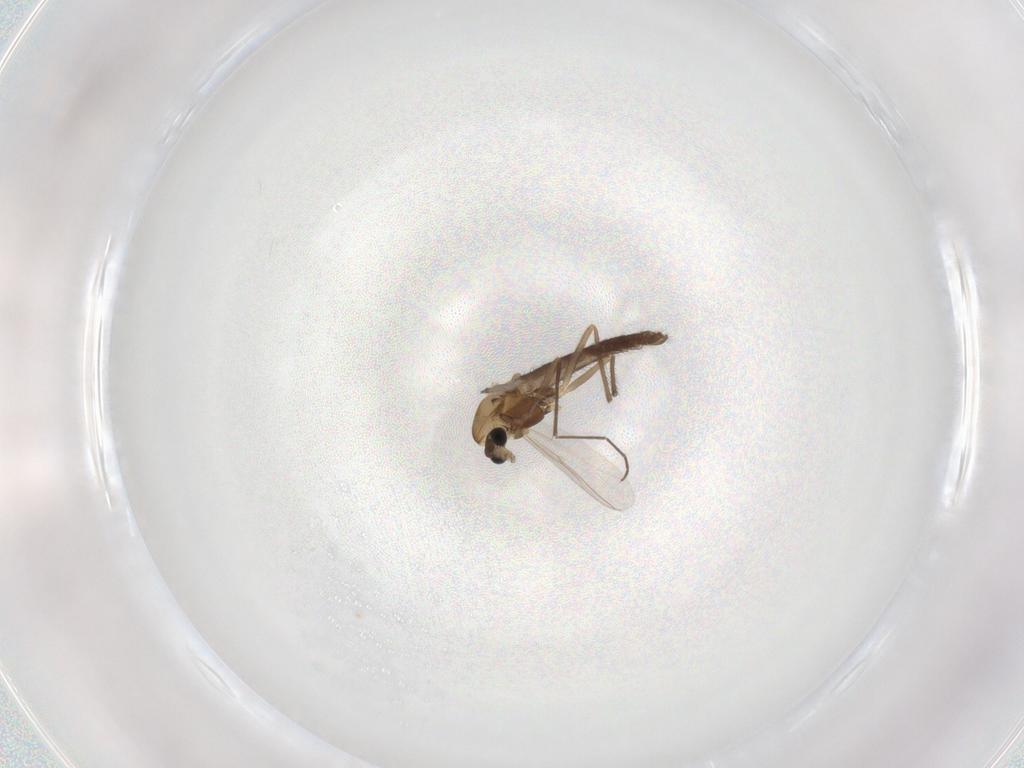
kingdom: Animalia
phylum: Arthropoda
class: Insecta
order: Diptera
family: Chironomidae
